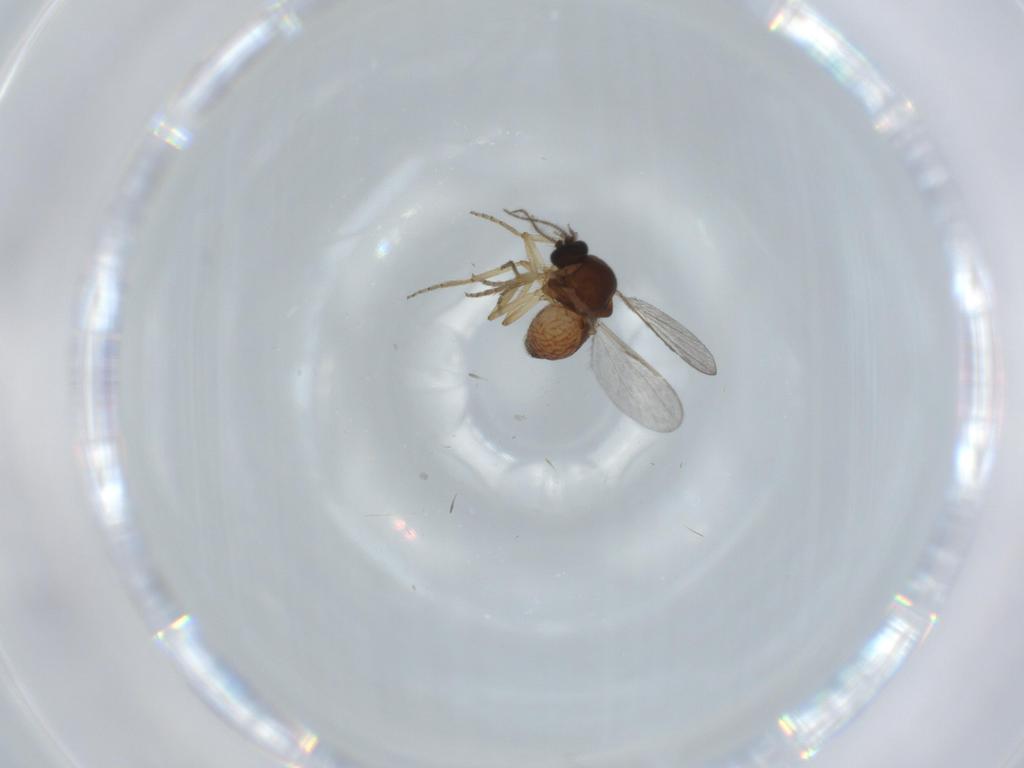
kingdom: Animalia
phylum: Arthropoda
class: Insecta
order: Diptera
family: Ceratopogonidae
